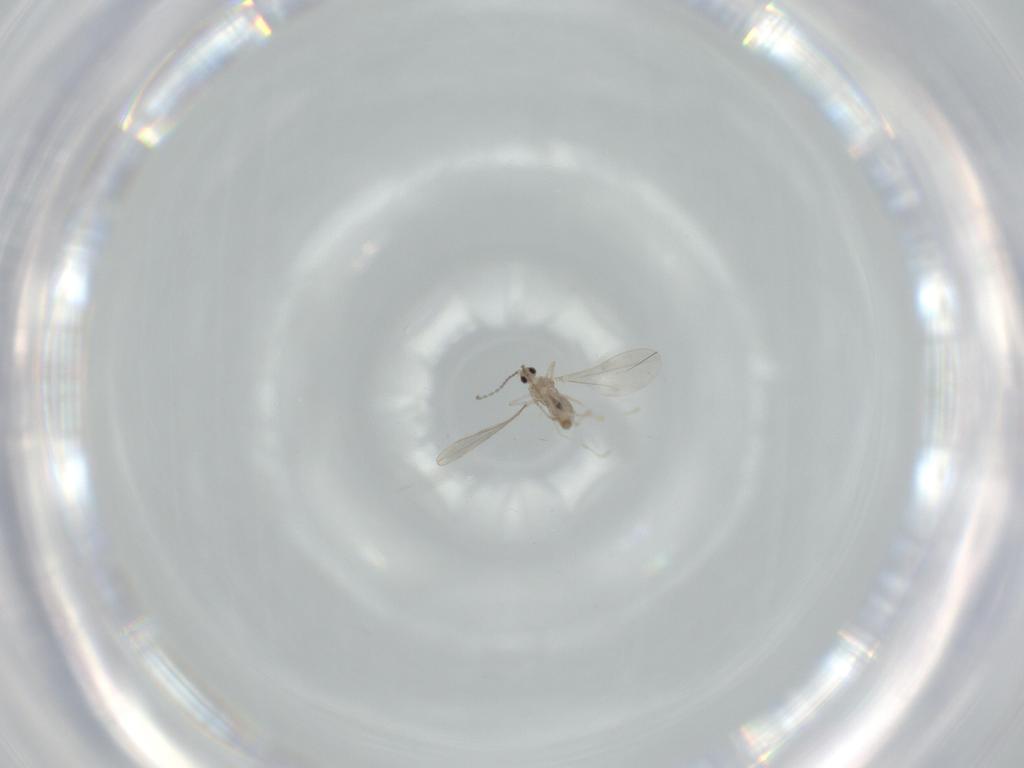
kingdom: Animalia
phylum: Arthropoda
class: Insecta
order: Diptera
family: Cecidomyiidae
